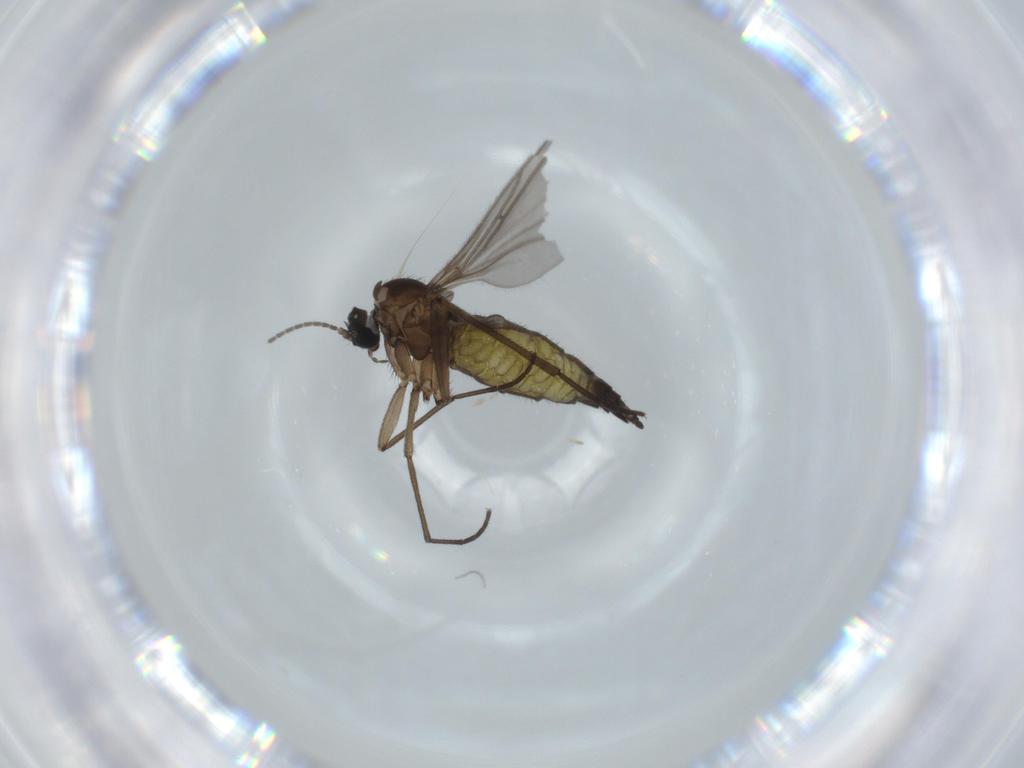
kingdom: Animalia
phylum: Arthropoda
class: Insecta
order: Diptera
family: Sciaridae
